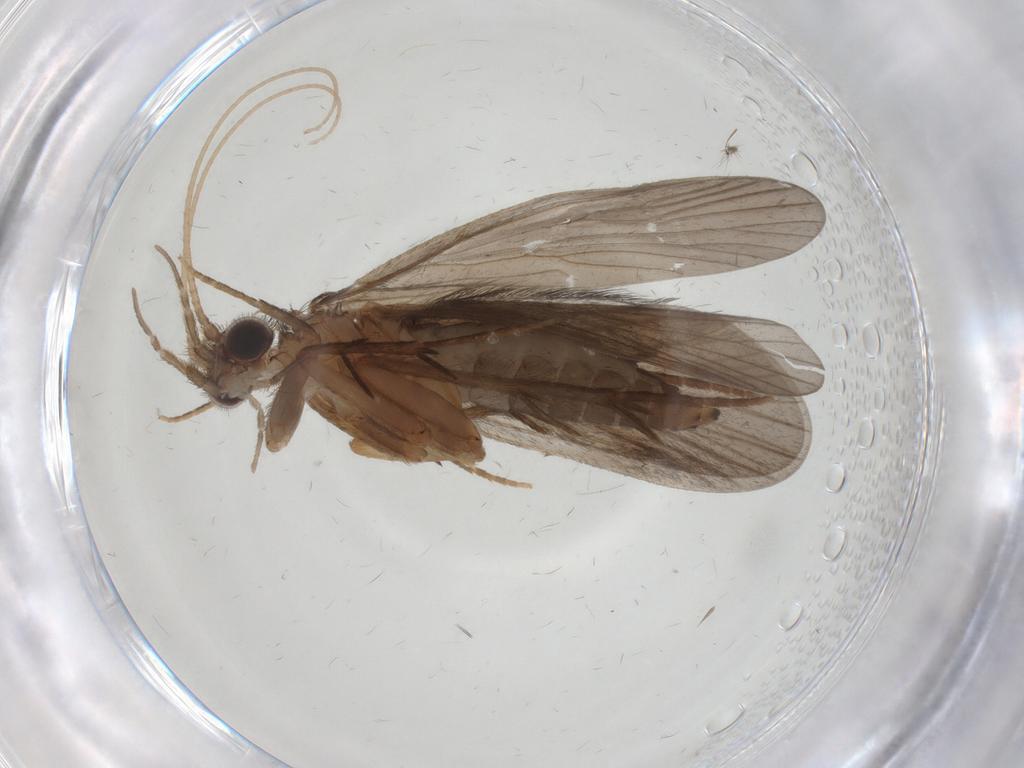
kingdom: Animalia
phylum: Arthropoda
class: Insecta
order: Trichoptera
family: Philopotamidae
